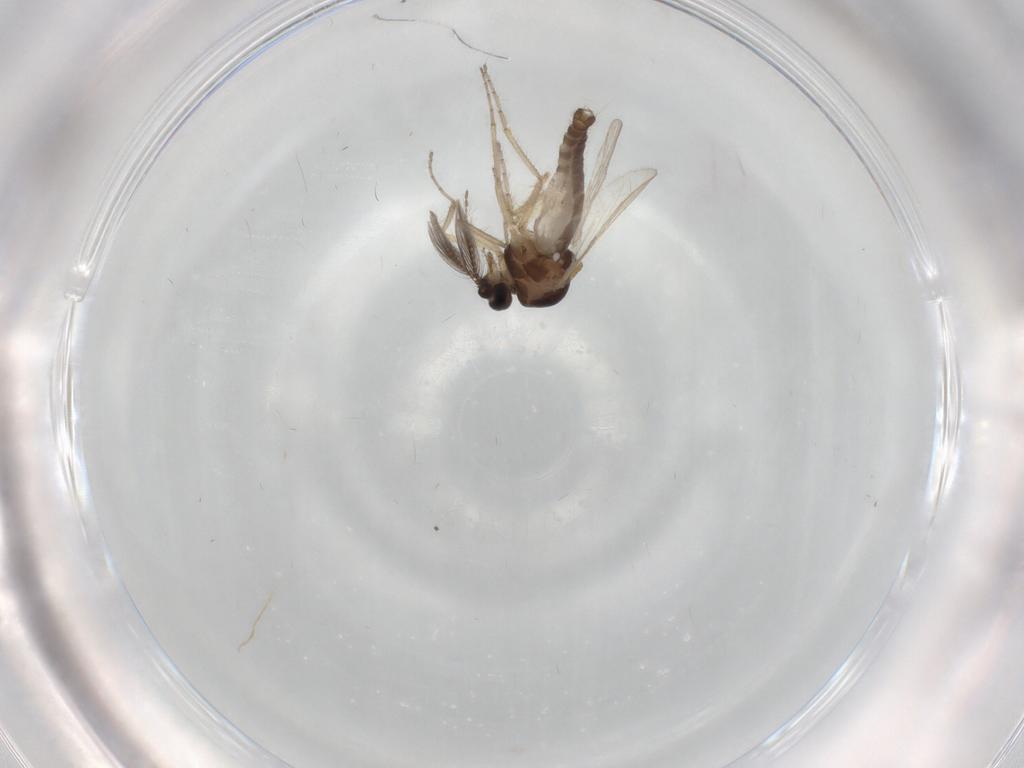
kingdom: Animalia
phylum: Arthropoda
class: Insecta
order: Diptera
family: Ceratopogonidae
